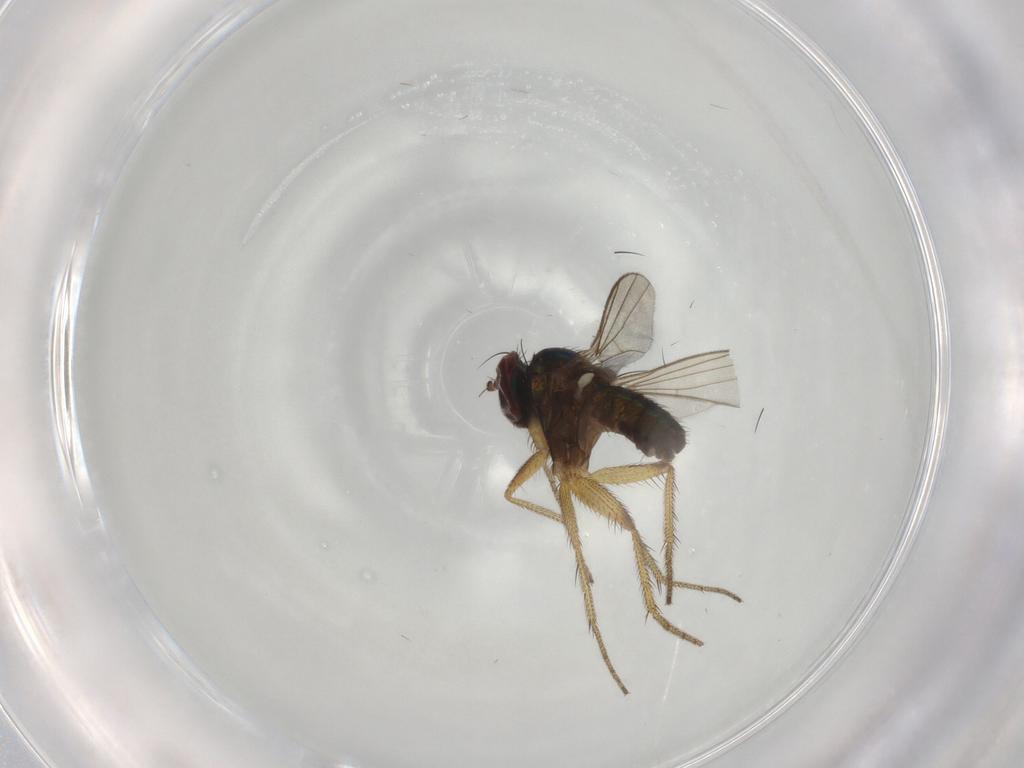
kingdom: Animalia
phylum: Arthropoda
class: Insecta
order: Diptera
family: Dolichopodidae
